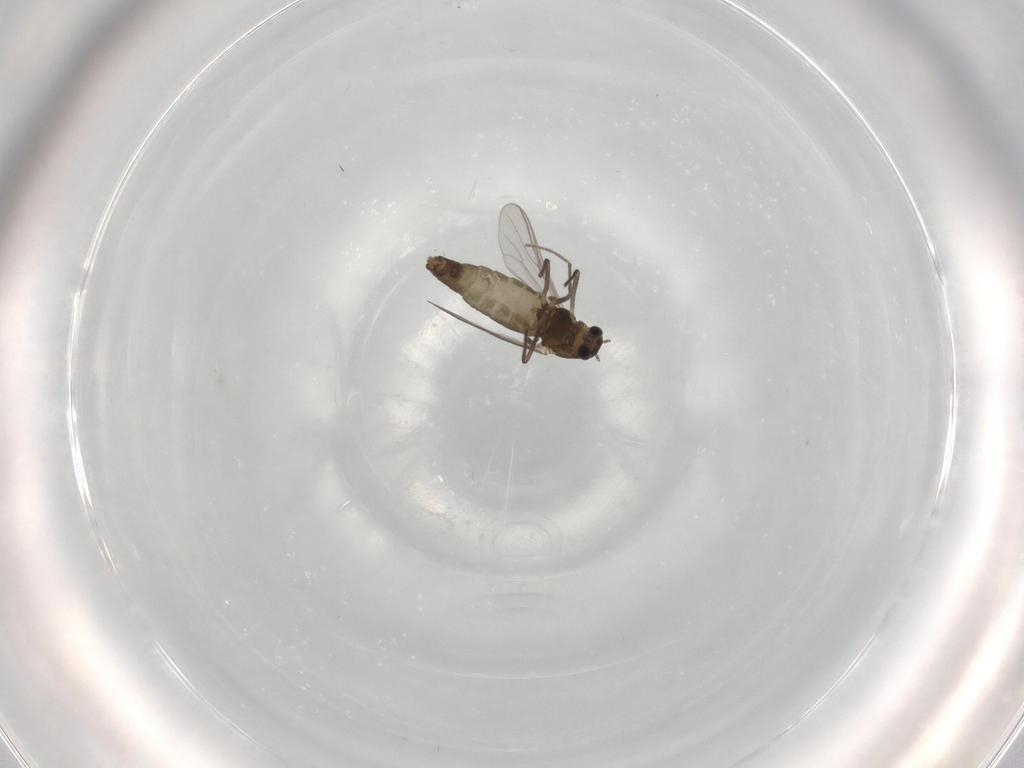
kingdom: Animalia
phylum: Arthropoda
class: Insecta
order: Diptera
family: Chironomidae
